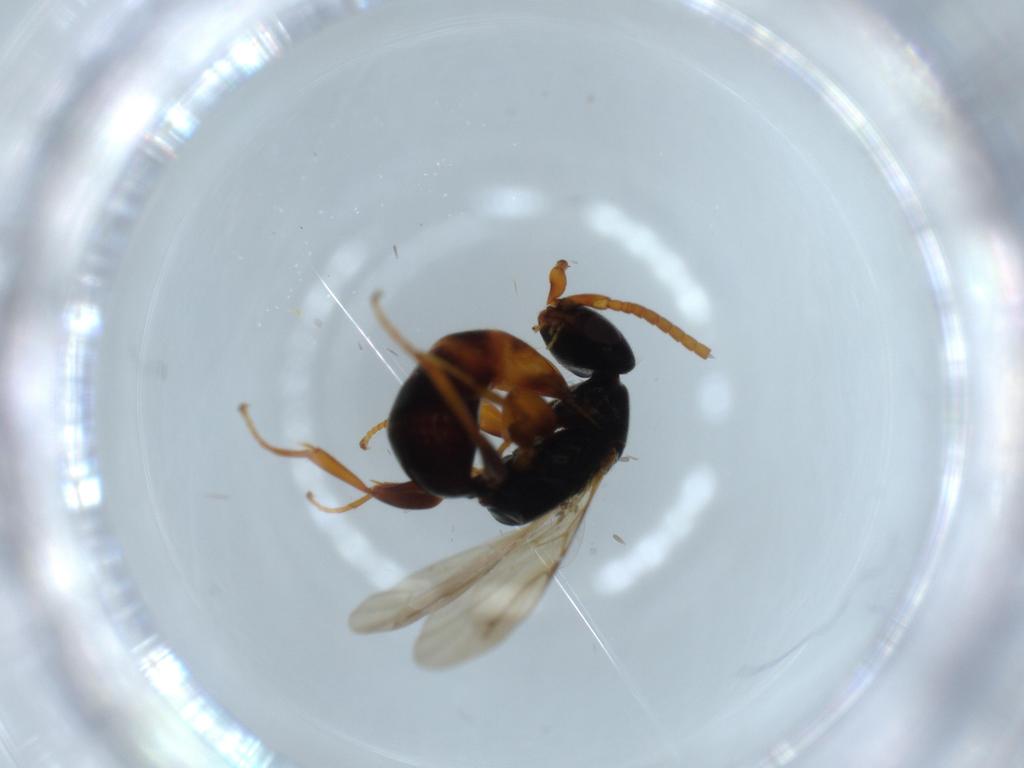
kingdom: Animalia
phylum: Arthropoda
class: Insecta
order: Hymenoptera
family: Bethylidae
